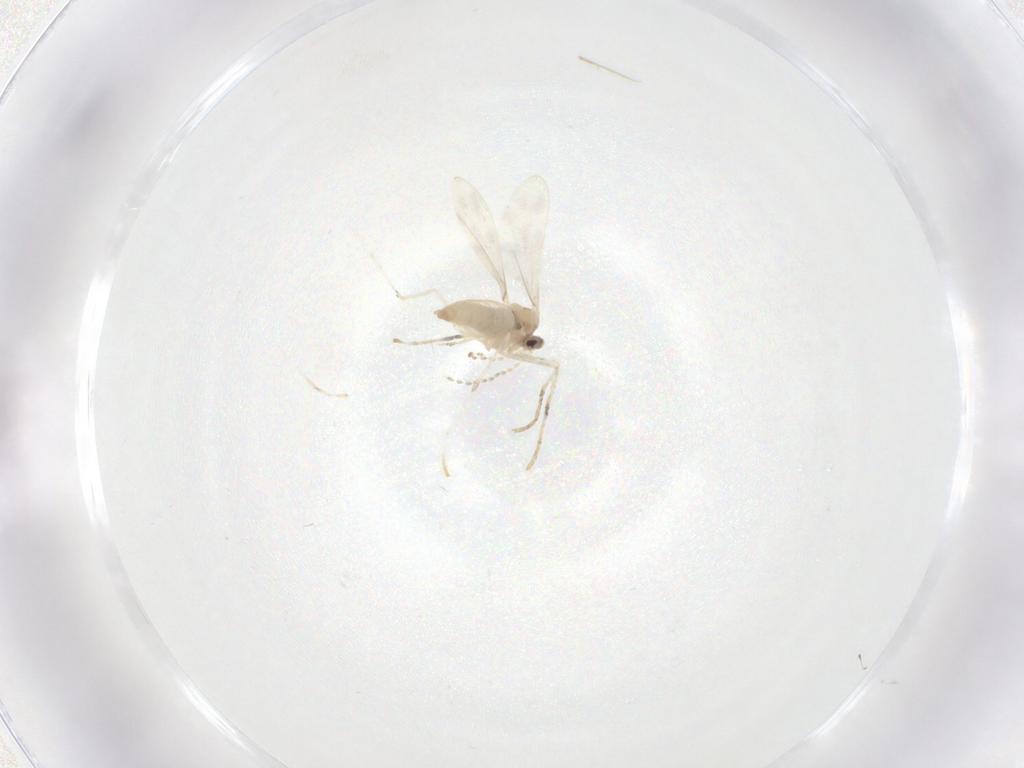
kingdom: Animalia
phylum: Arthropoda
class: Insecta
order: Diptera
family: Cecidomyiidae
